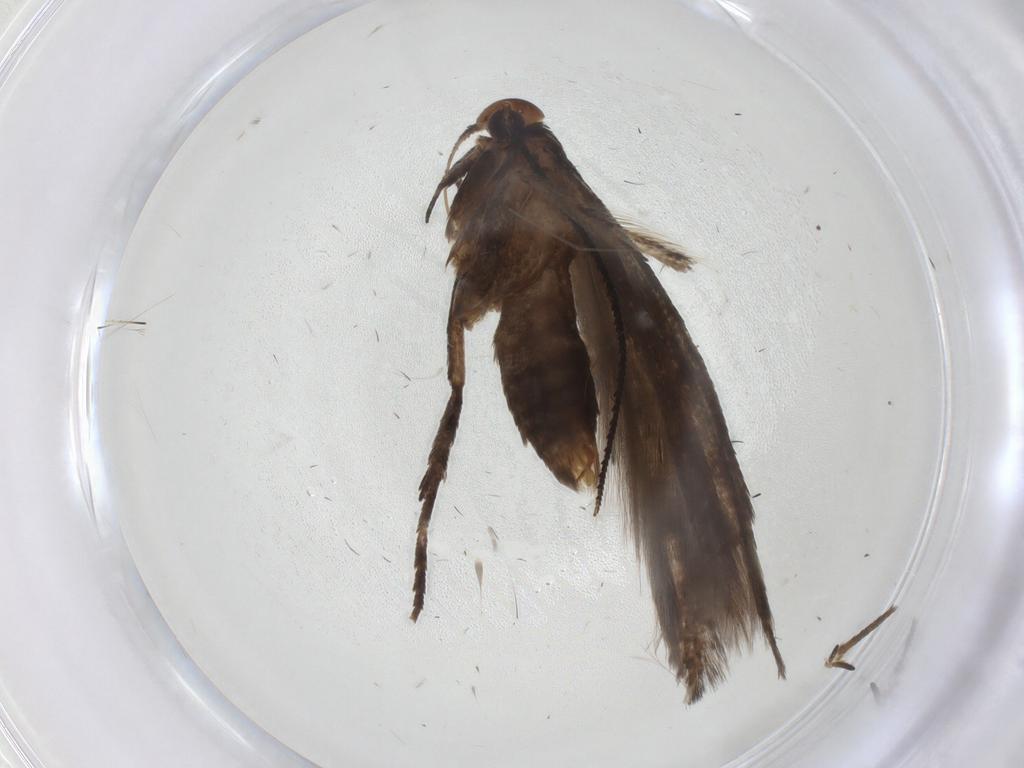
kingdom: Animalia
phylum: Arthropoda
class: Insecta
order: Lepidoptera
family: Gelechiidae
